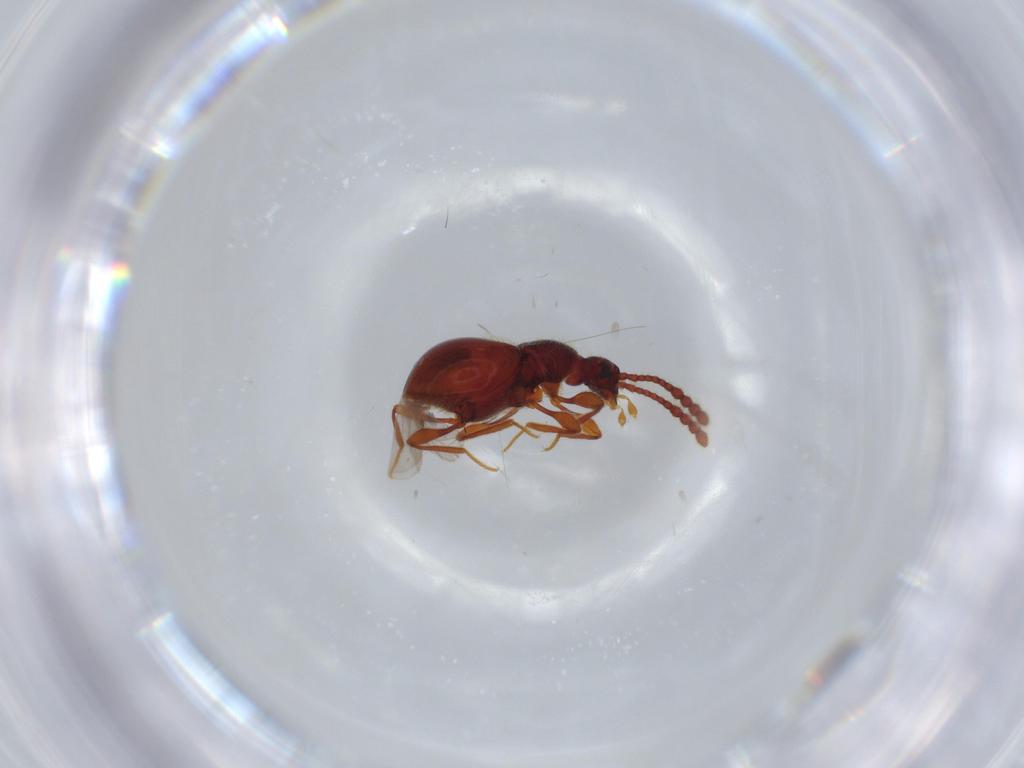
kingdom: Animalia
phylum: Arthropoda
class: Insecta
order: Coleoptera
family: Staphylinidae
